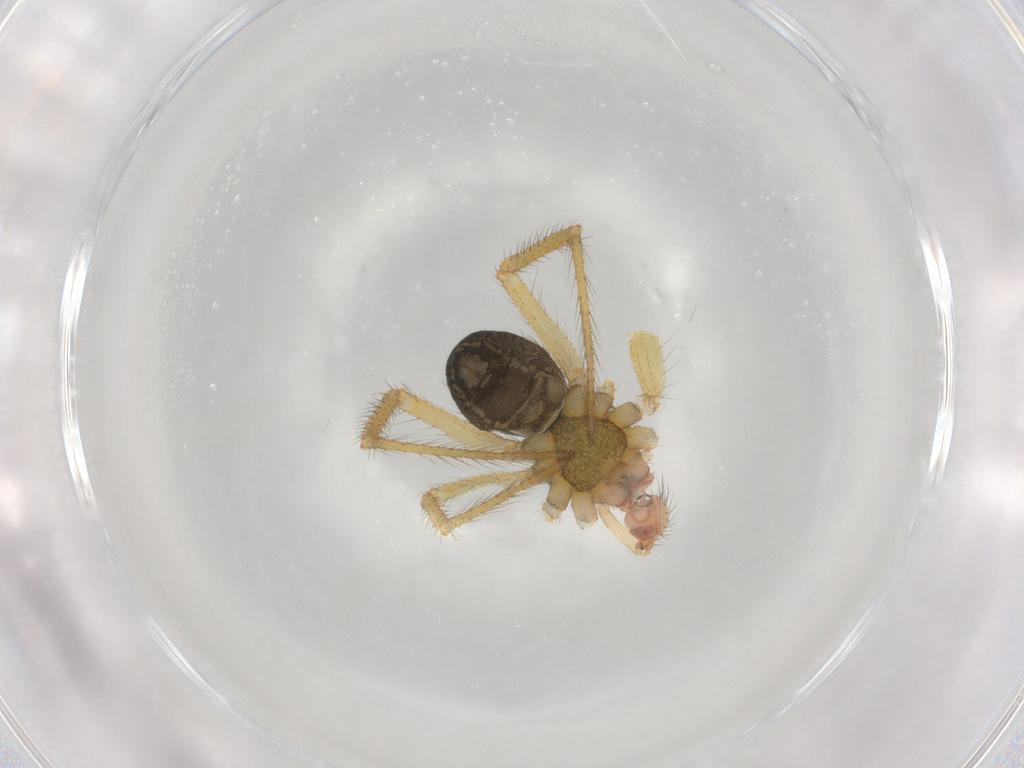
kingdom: Animalia
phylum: Arthropoda
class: Arachnida
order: Araneae
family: Nesticidae
